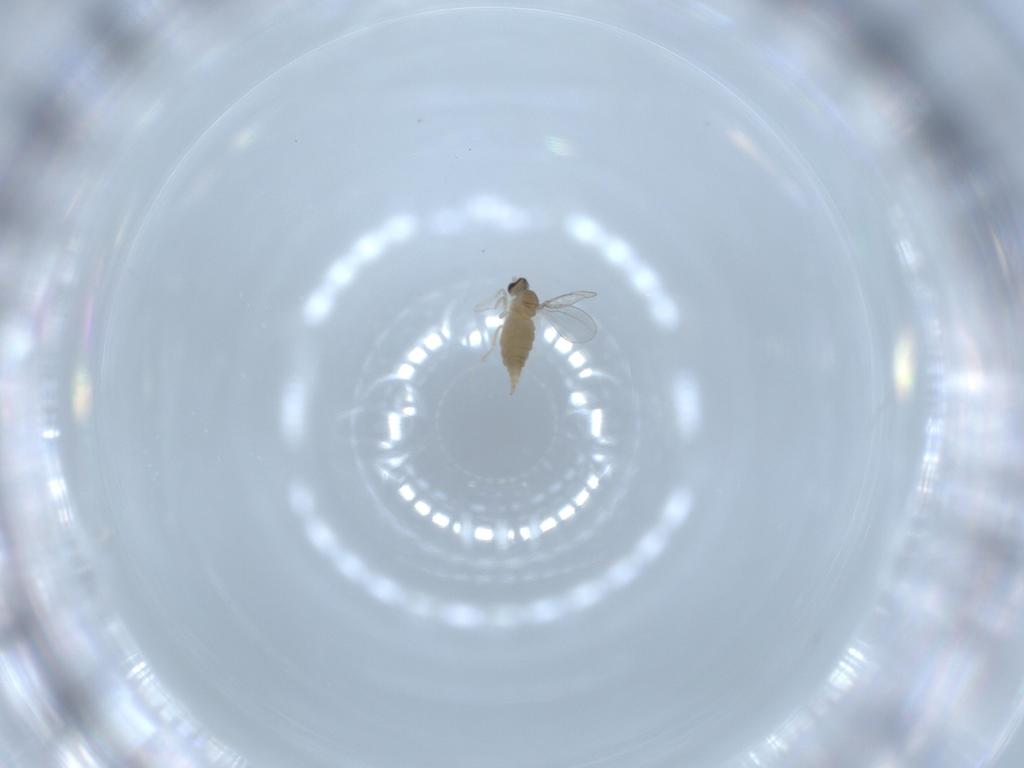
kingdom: Animalia
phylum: Arthropoda
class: Insecta
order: Diptera
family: Cecidomyiidae
